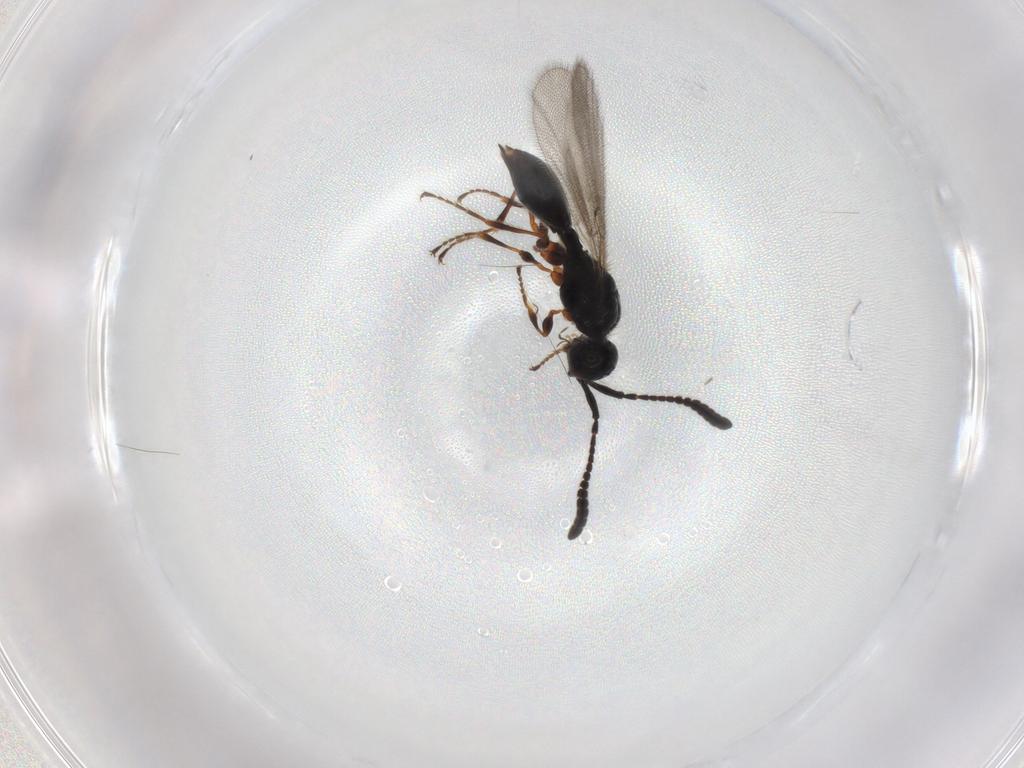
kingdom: Animalia
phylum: Arthropoda
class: Insecta
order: Hymenoptera
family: Diapriidae
